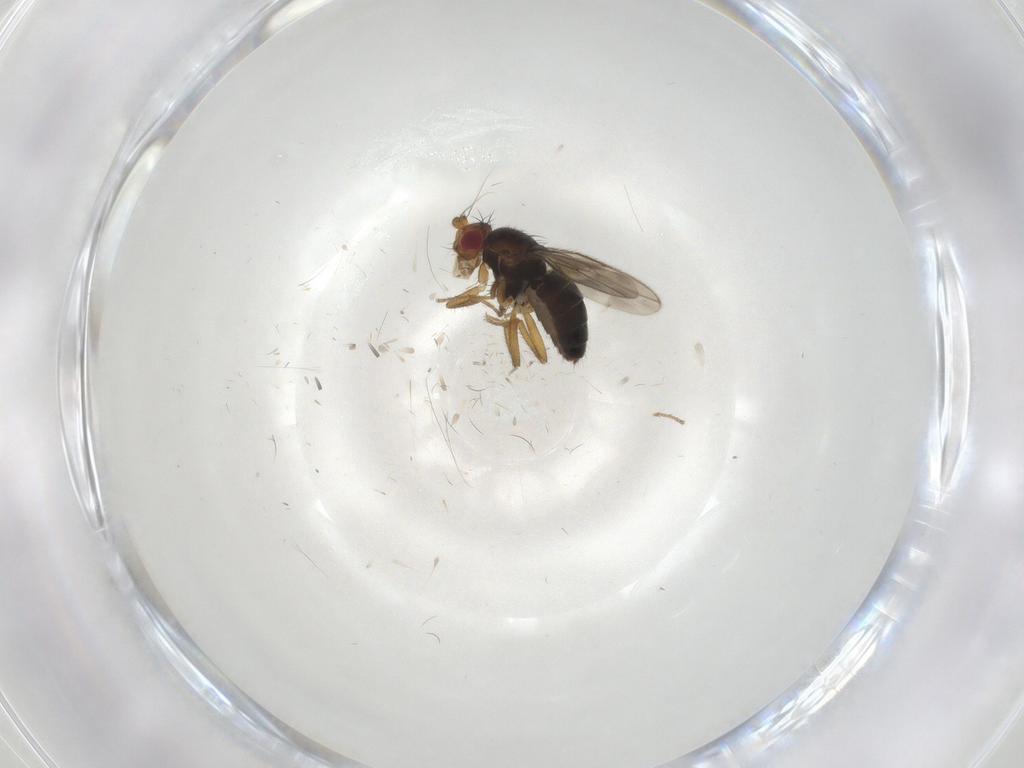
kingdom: Animalia
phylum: Arthropoda
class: Insecta
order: Diptera
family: Sphaeroceridae
